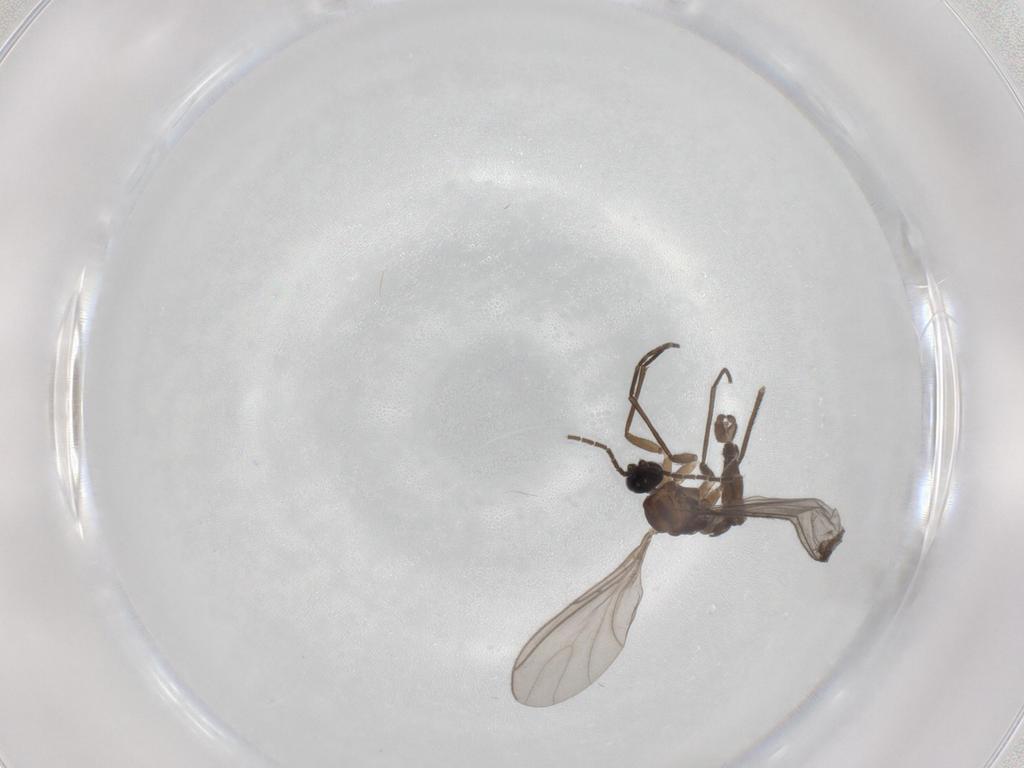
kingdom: Animalia
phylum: Arthropoda
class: Insecta
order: Diptera
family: Sciaridae
